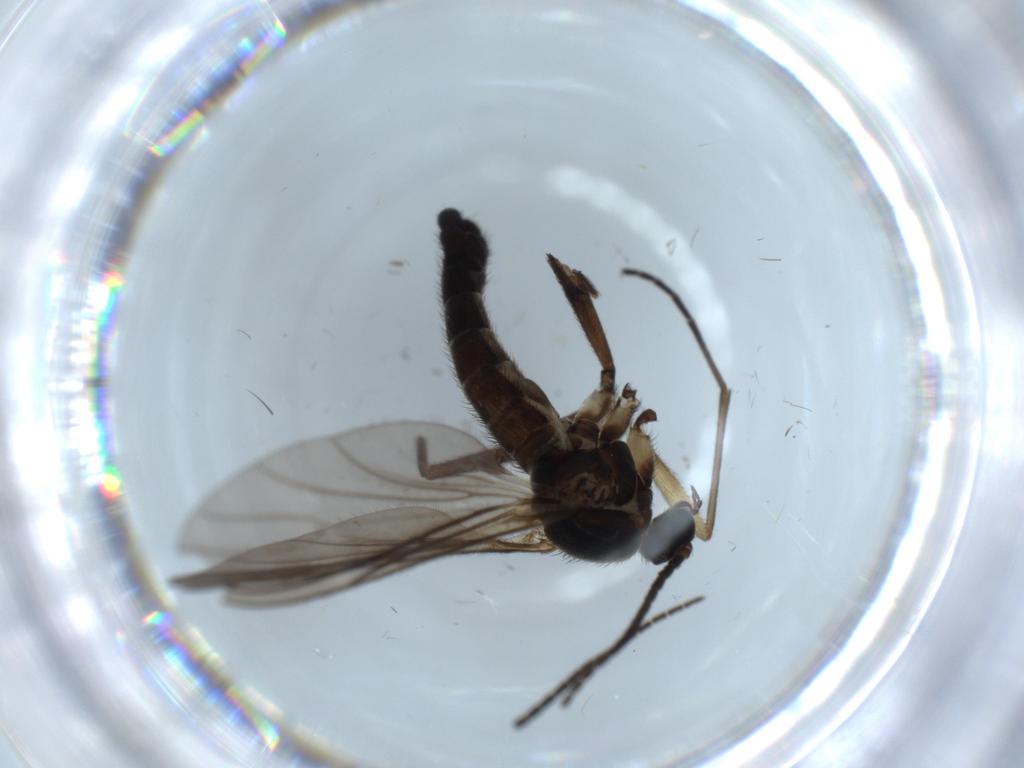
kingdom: Animalia
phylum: Arthropoda
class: Insecta
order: Diptera
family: Sciaridae
